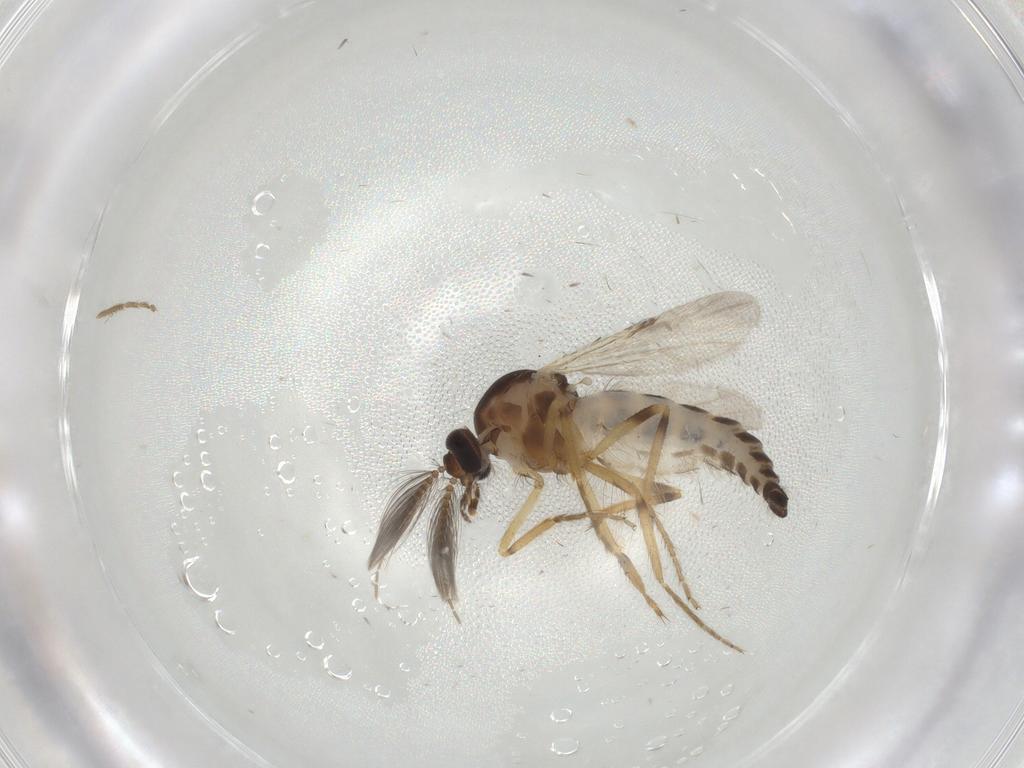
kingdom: Animalia
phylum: Arthropoda
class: Insecta
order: Diptera
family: Ceratopogonidae
